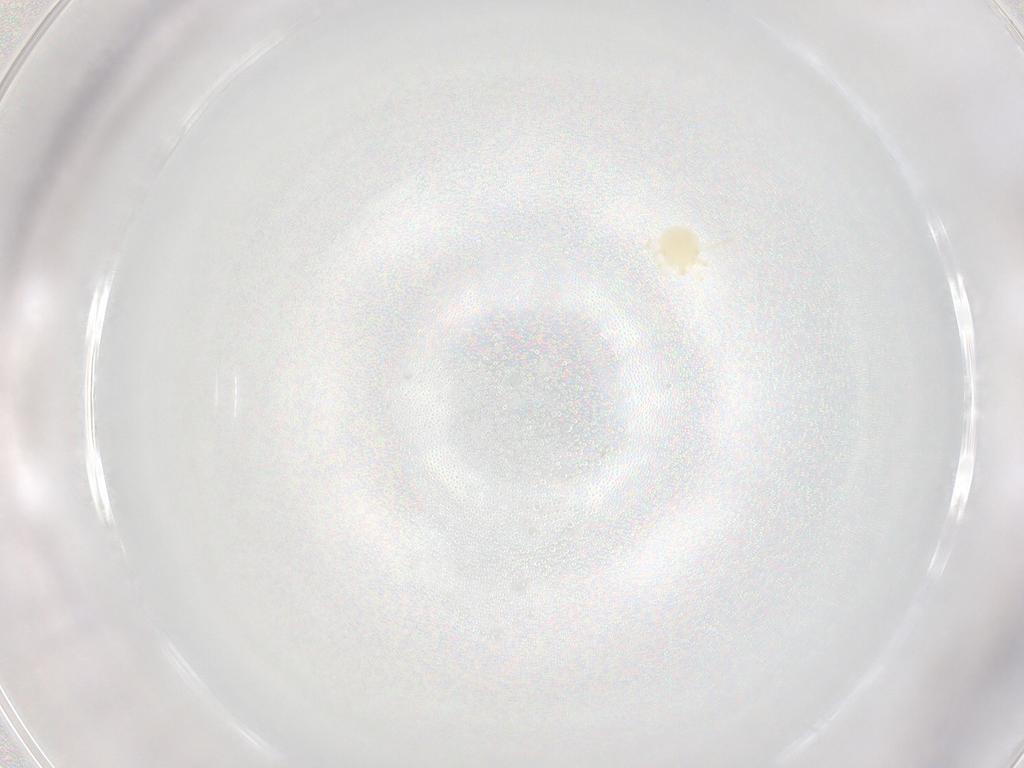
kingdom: Animalia
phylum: Arthropoda
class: Arachnida
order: Trombidiformes
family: Sperchontidae
